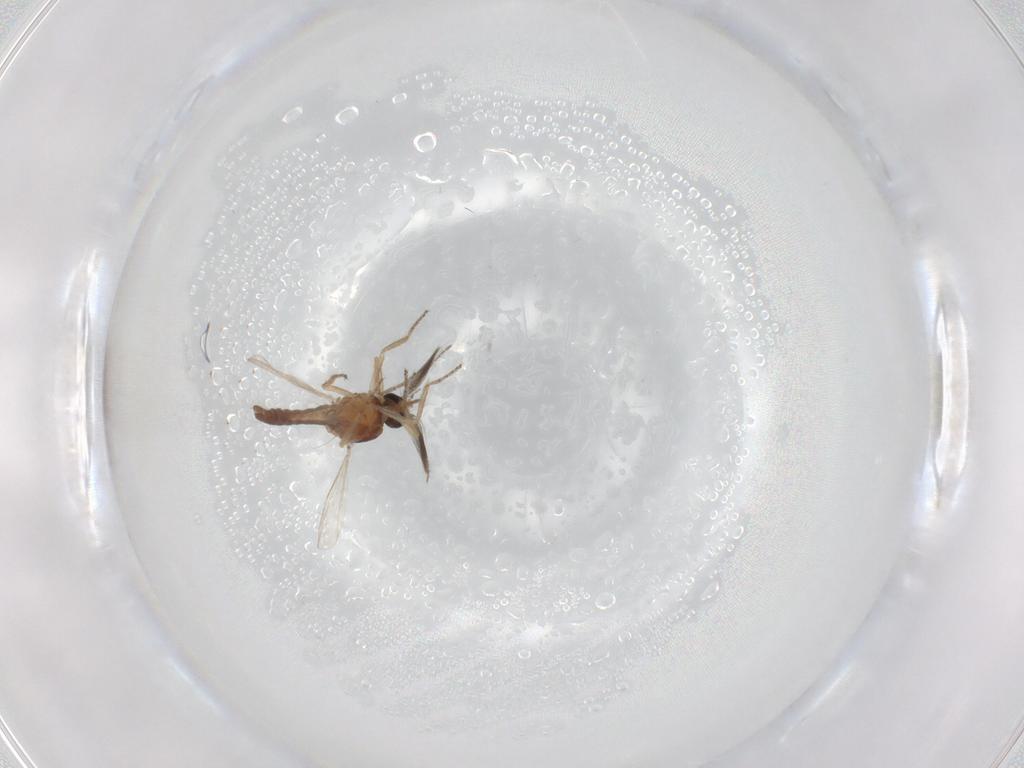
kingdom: Animalia
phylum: Arthropoda
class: Insecta
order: Diptera
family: Ceratopogonidae
